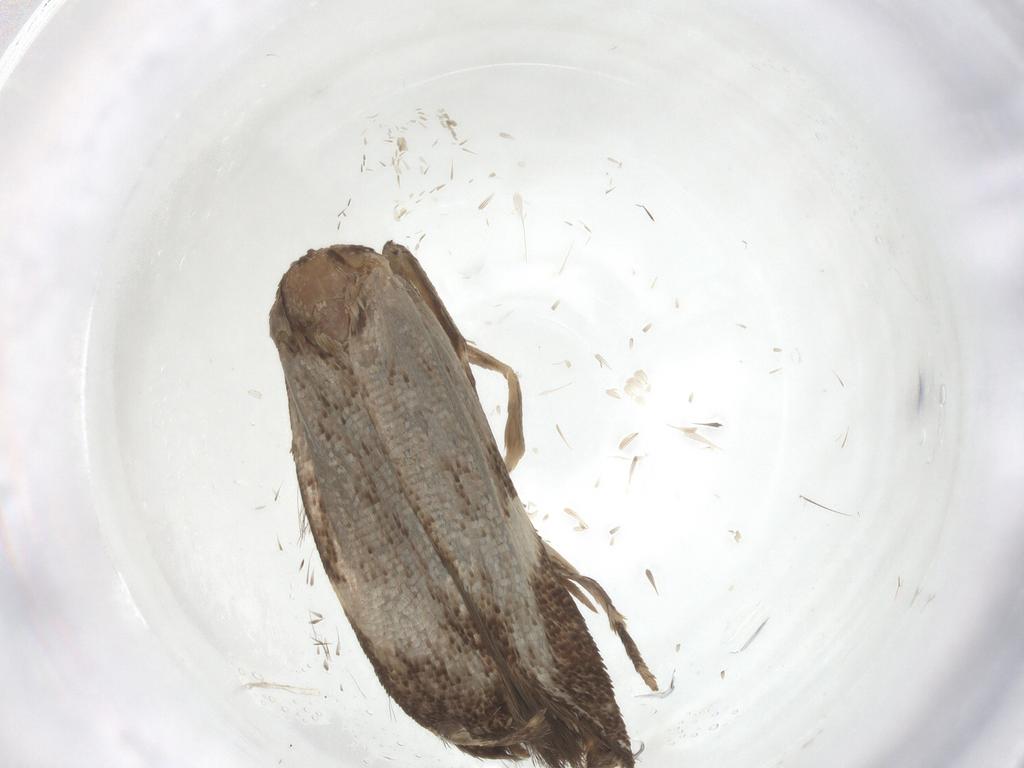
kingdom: Animalia
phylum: Arthropoda
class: Insecta
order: Lepidoptera
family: Cosmopterigidae
